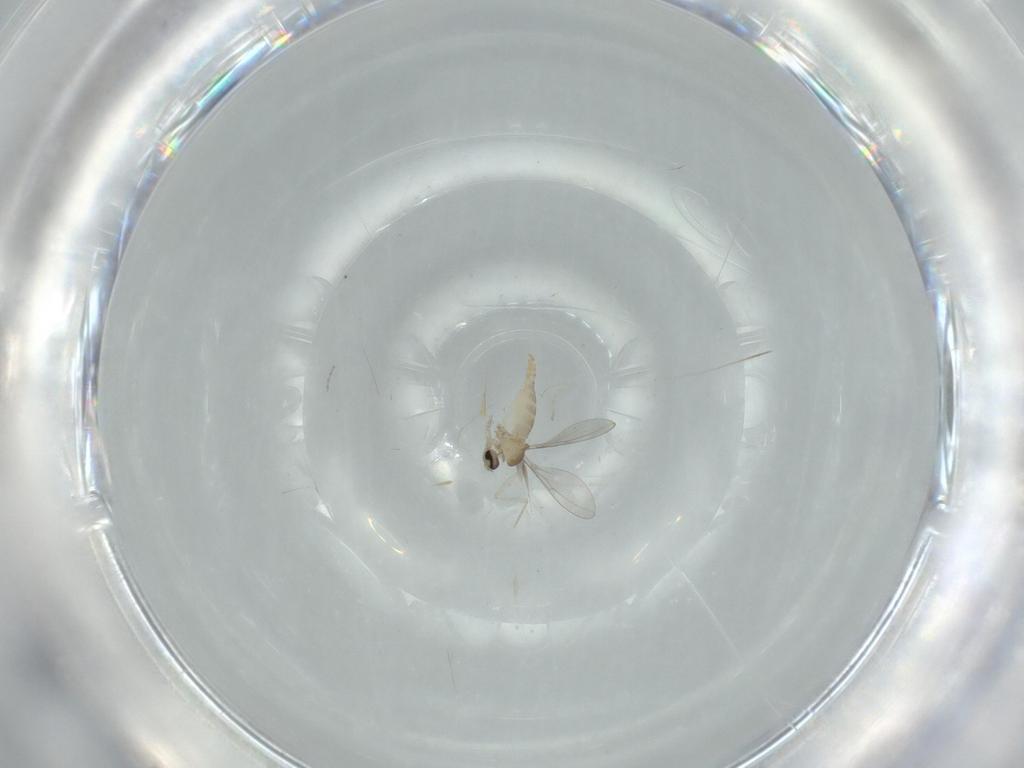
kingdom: Animalia
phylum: Arthropoda
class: Insecta
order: Diptera
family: Cecidomyiidae
